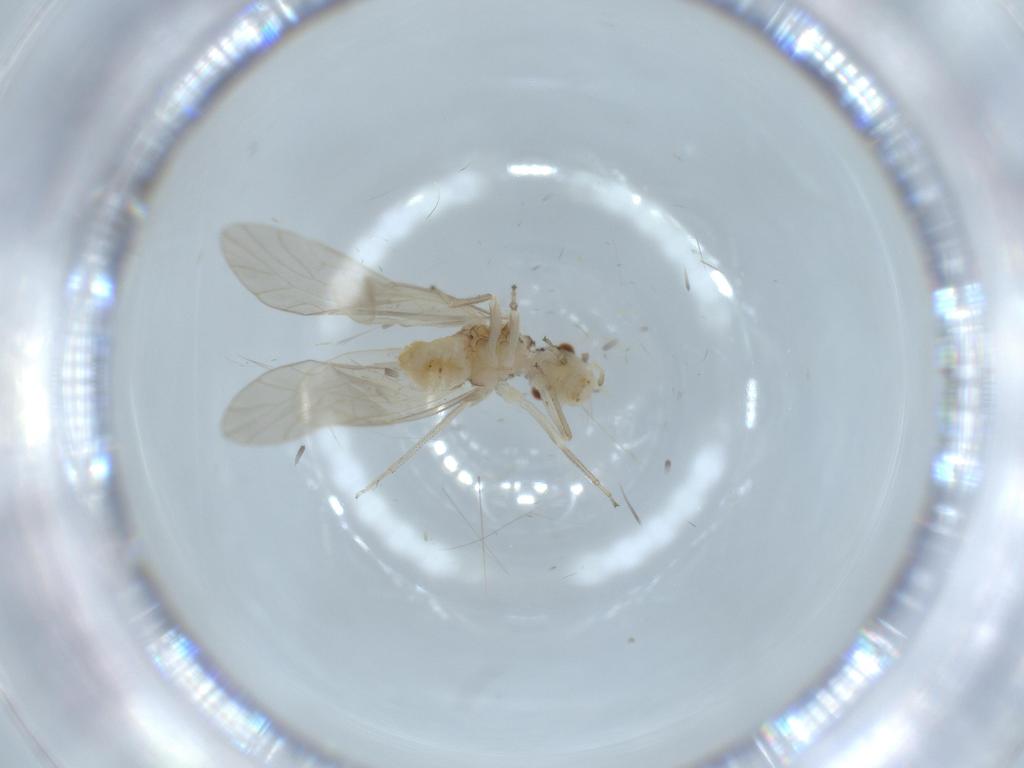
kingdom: Animalia
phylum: Arthropoda
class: Insecta
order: Psocodea
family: Caeciliusidae
